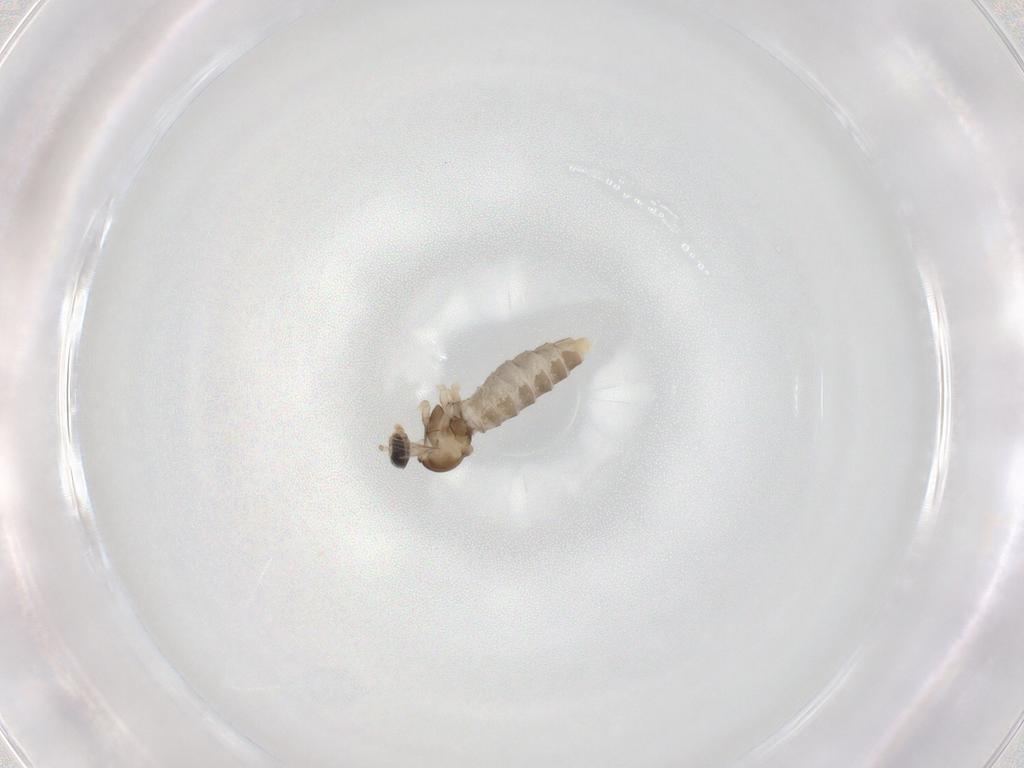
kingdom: Animalia
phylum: Arthropoda
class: Insecta
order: Diptera
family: Cecidomyiidae
